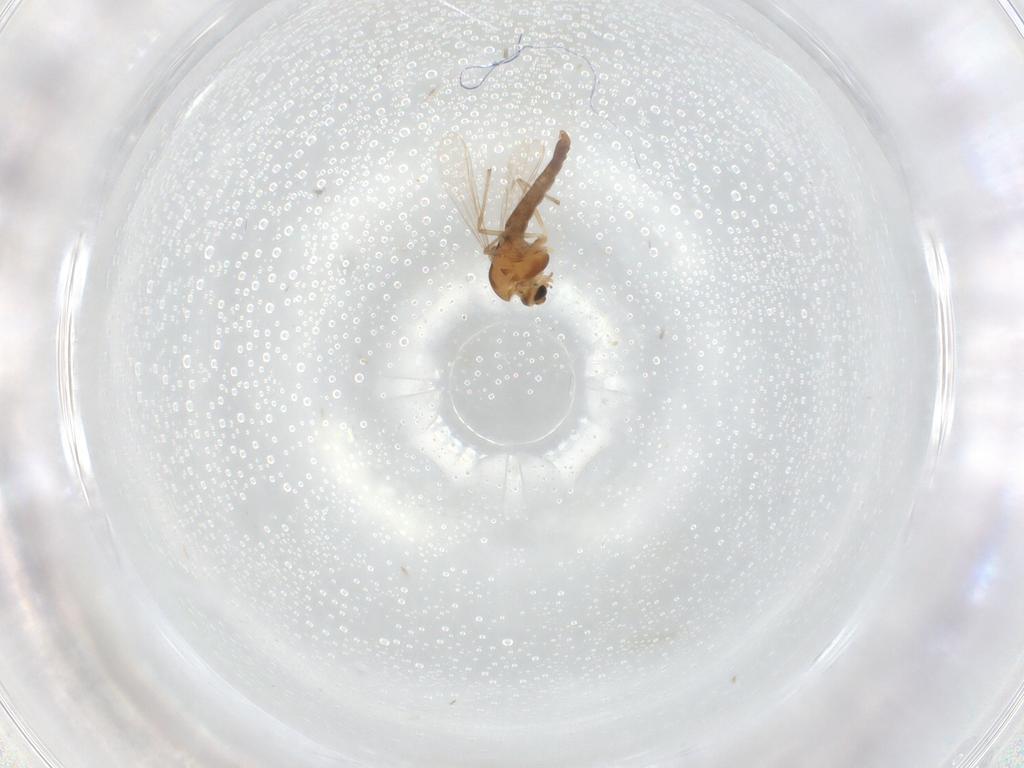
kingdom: Animalia
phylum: Arthropoda
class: Insecta
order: Diptera
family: Chironomidae
